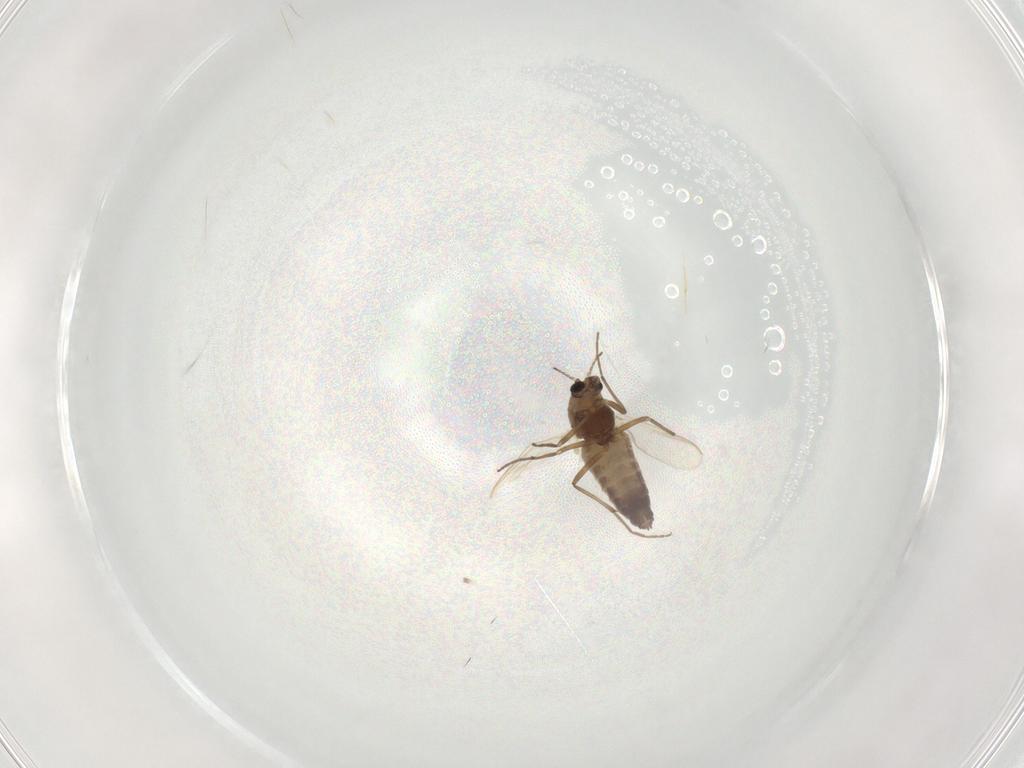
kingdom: Animalia
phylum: Arthropoda
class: Insecta
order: Diptera
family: Chironomidae
